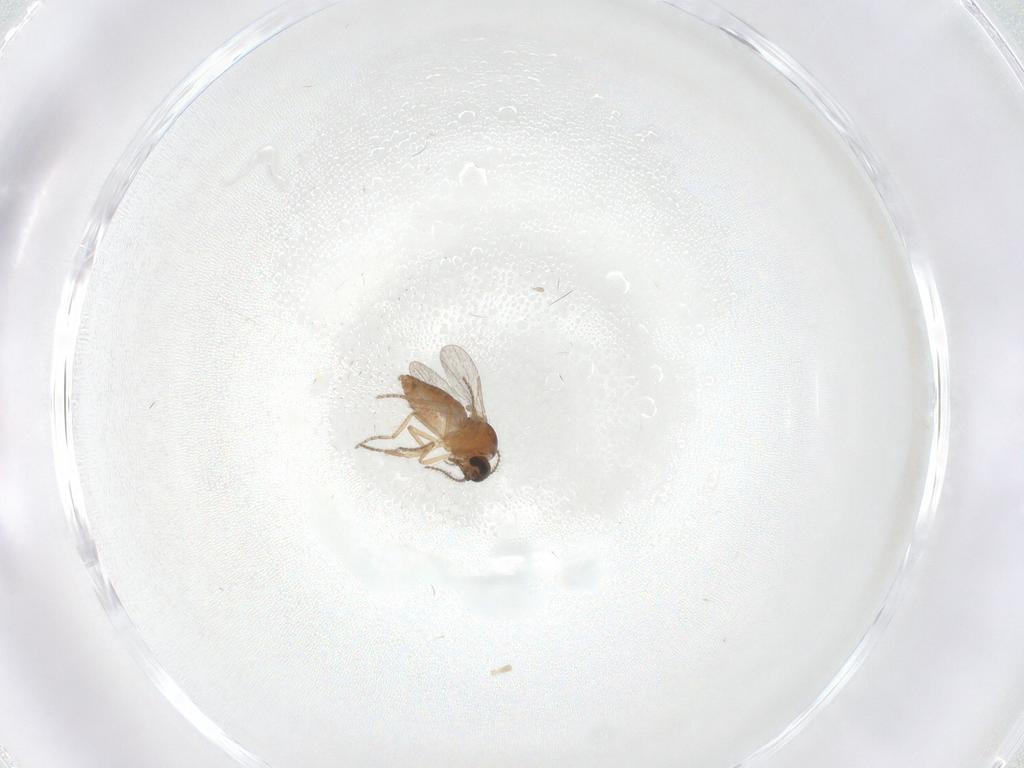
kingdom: Animalia
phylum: Arthropoda
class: Insecta
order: Diptera
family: Ceratopogonidae
